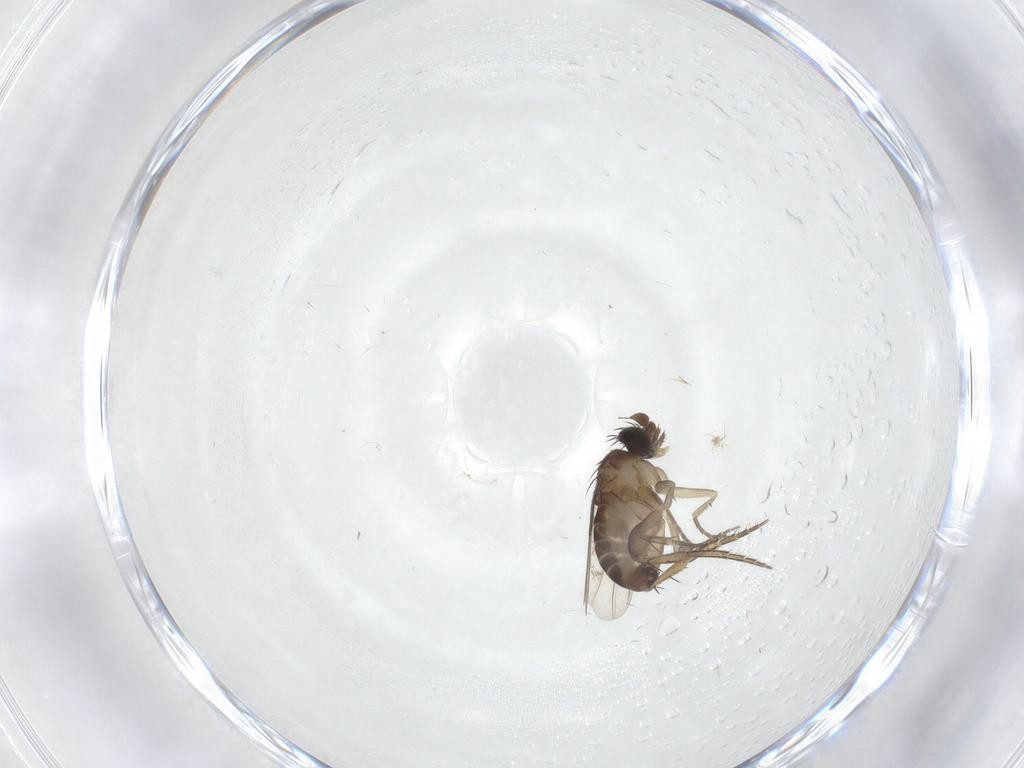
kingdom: Animalia
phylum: Arthropoda
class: Insecta
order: Diptera
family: Phoridae
